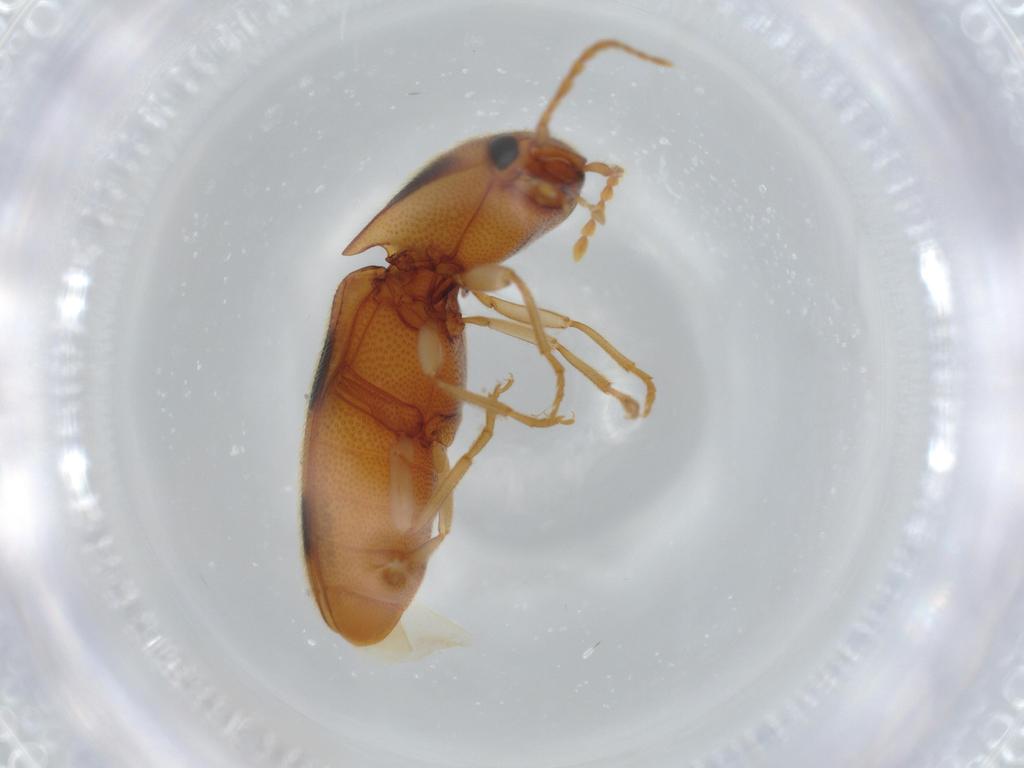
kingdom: Animalia
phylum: Arthropoda
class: Insecta
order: Coleoptera
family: Elateridae
